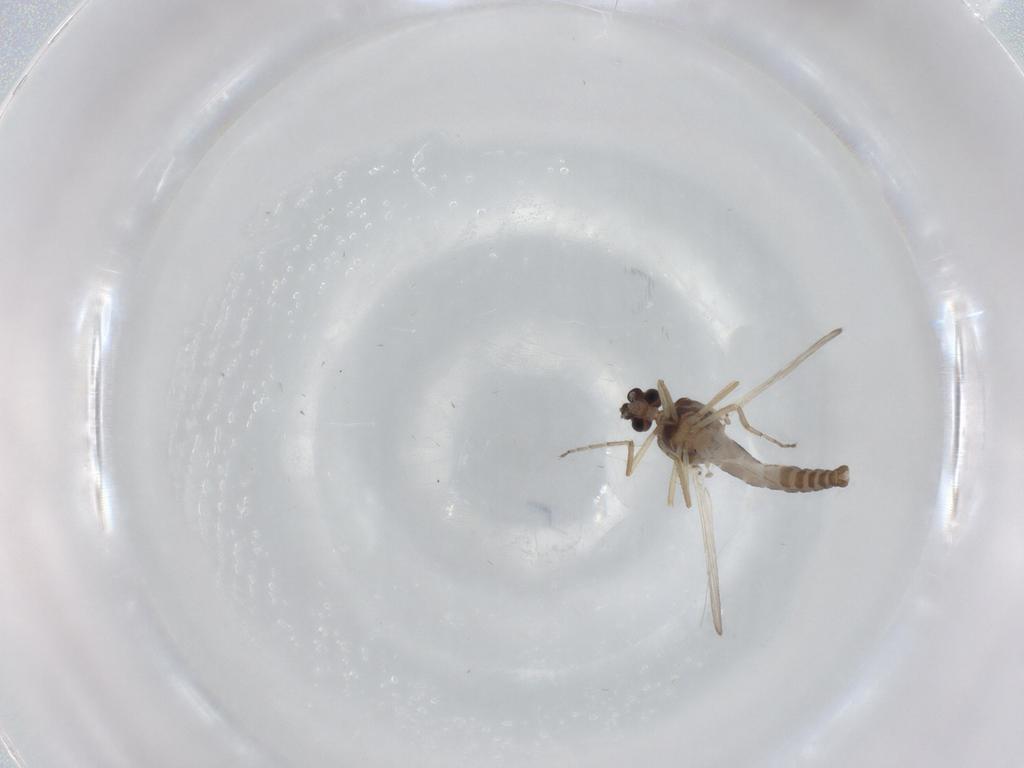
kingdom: Animalia
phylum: Arthropoda
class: Insecta
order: Diptera
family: Ceratopogonidae
